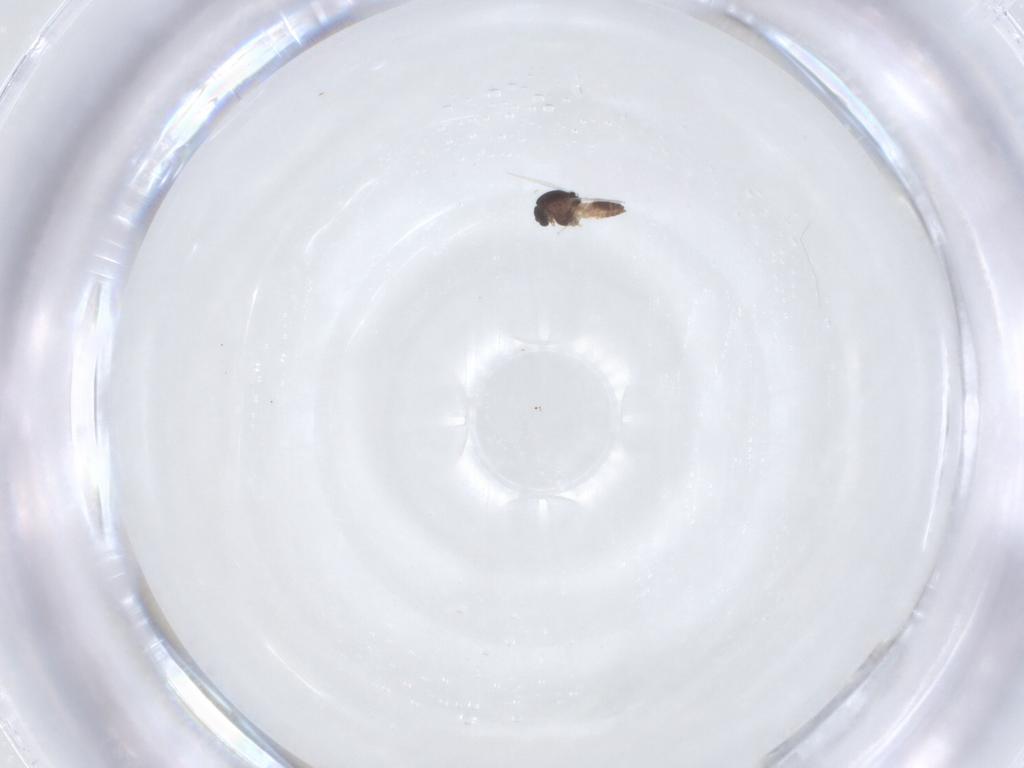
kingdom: Animalia
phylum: Arthropoda
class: Insecta
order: Diptera
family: Chironomidae
